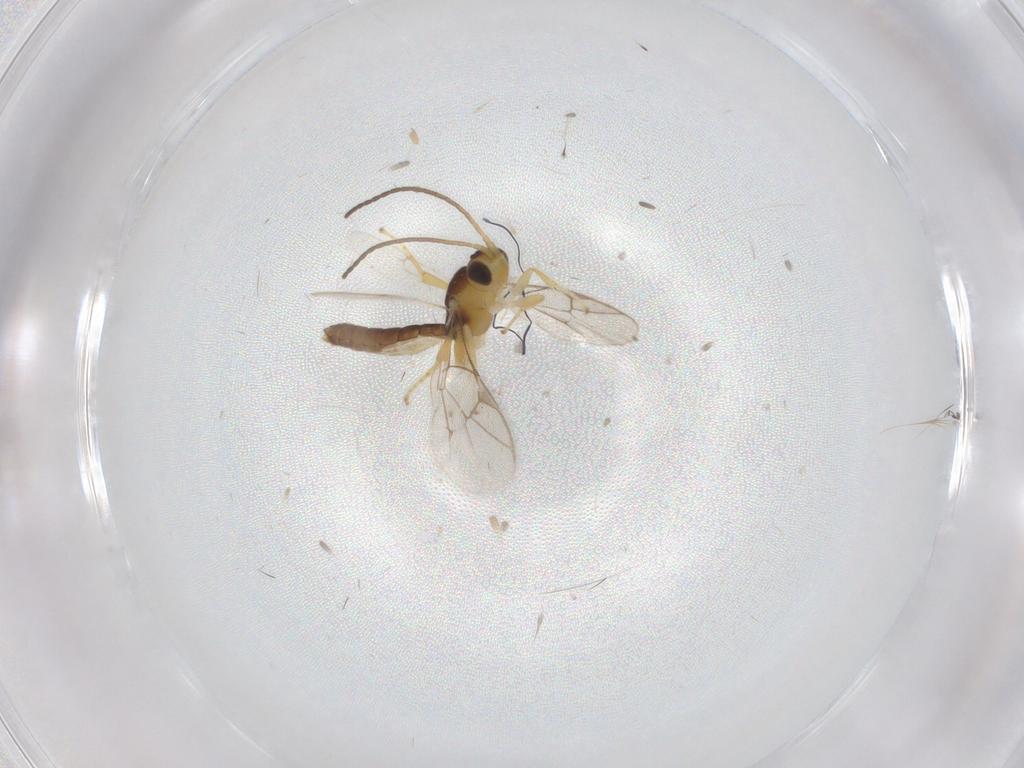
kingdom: Animalia
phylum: Arthropoda
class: Insecta
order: Hymenoptera
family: Ichneumonidae
